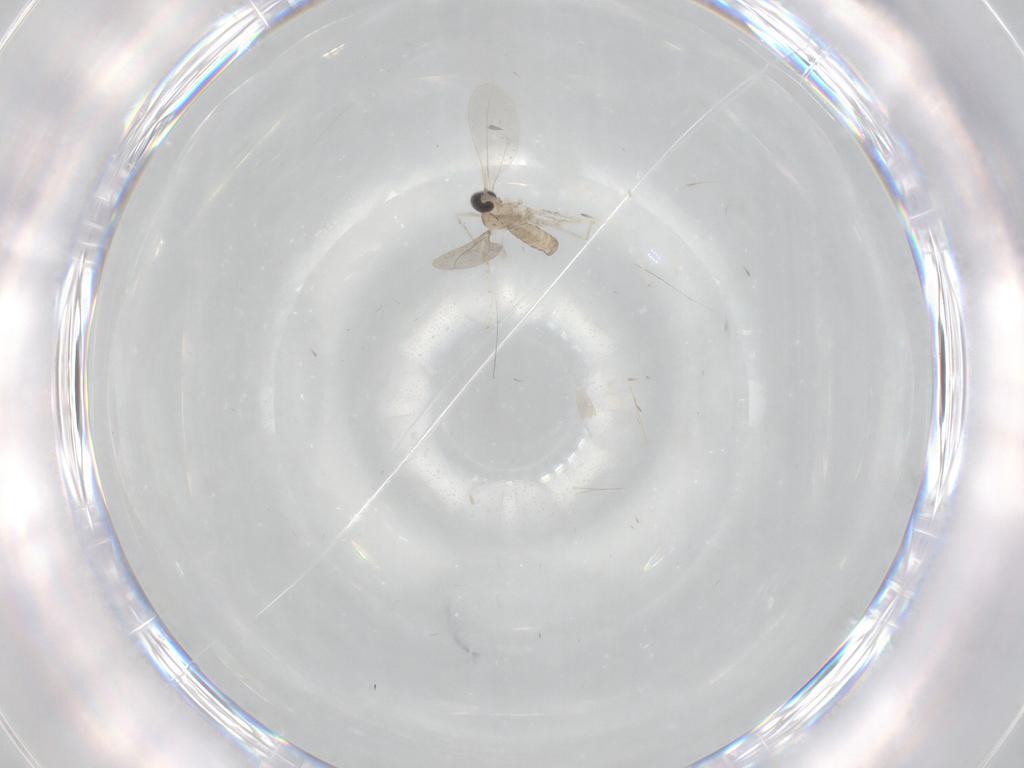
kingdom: Animalia
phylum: Arthropoda
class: Insecta
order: Diptera
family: Cecidomyiidae
